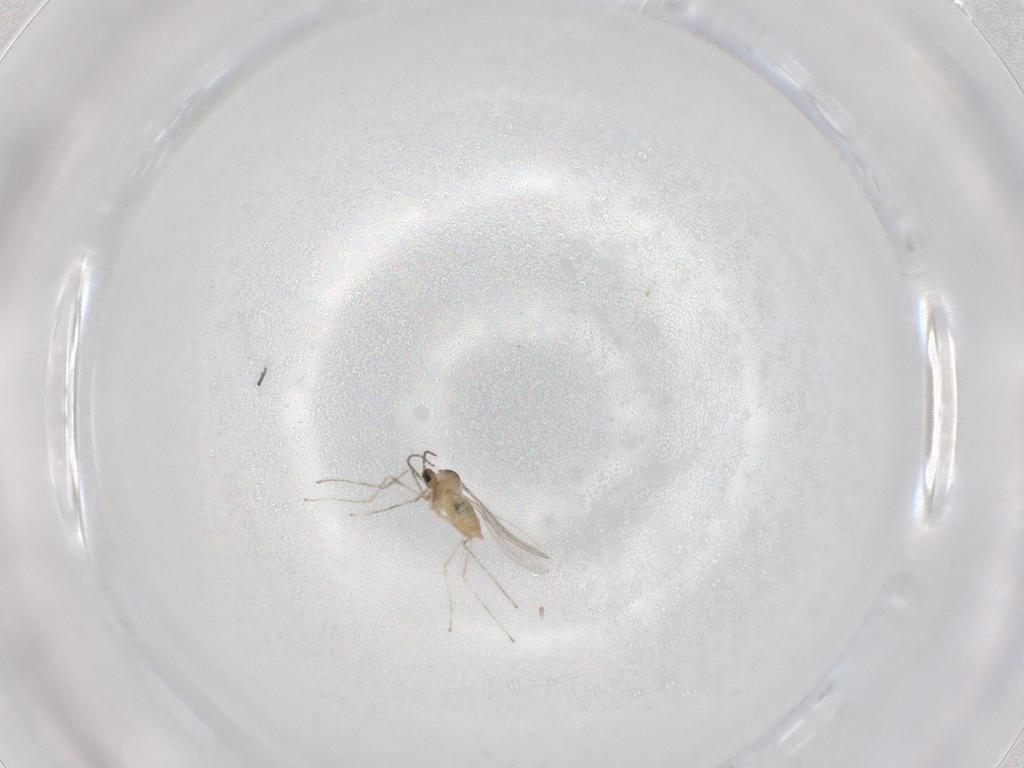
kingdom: Animalia
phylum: Arthropoda
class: Insecta
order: Diptera
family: Cecidomyiidae
